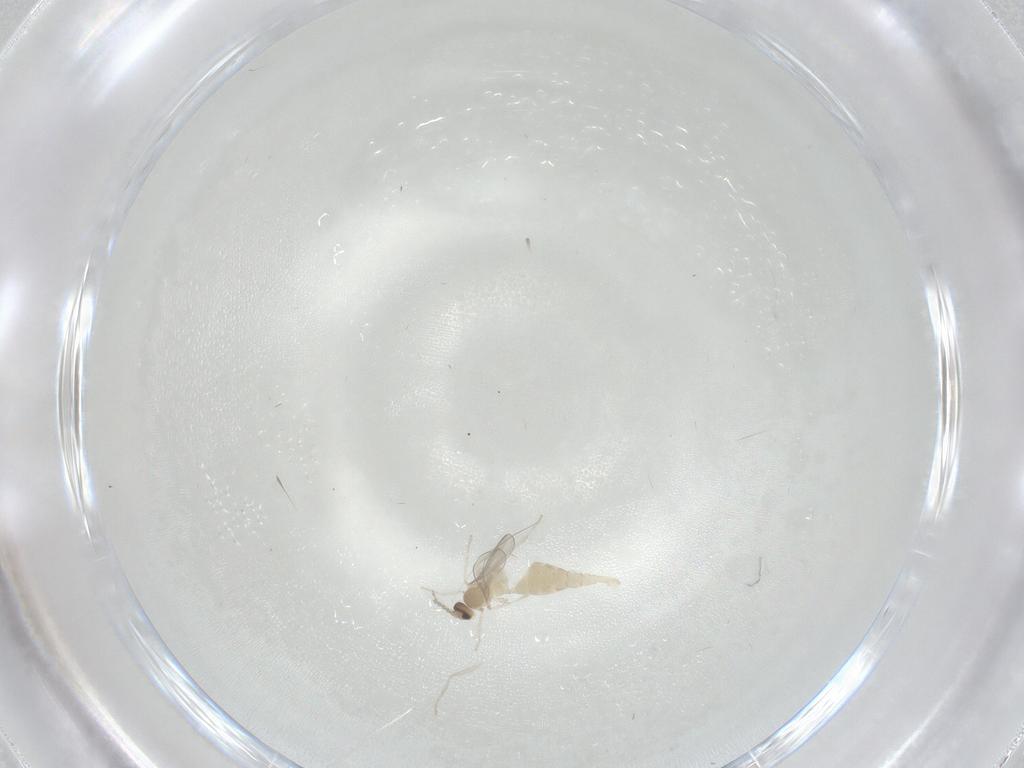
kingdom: Animalia
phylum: Arthropoda
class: Insecta
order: Diptera
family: Cecidomyiidae
